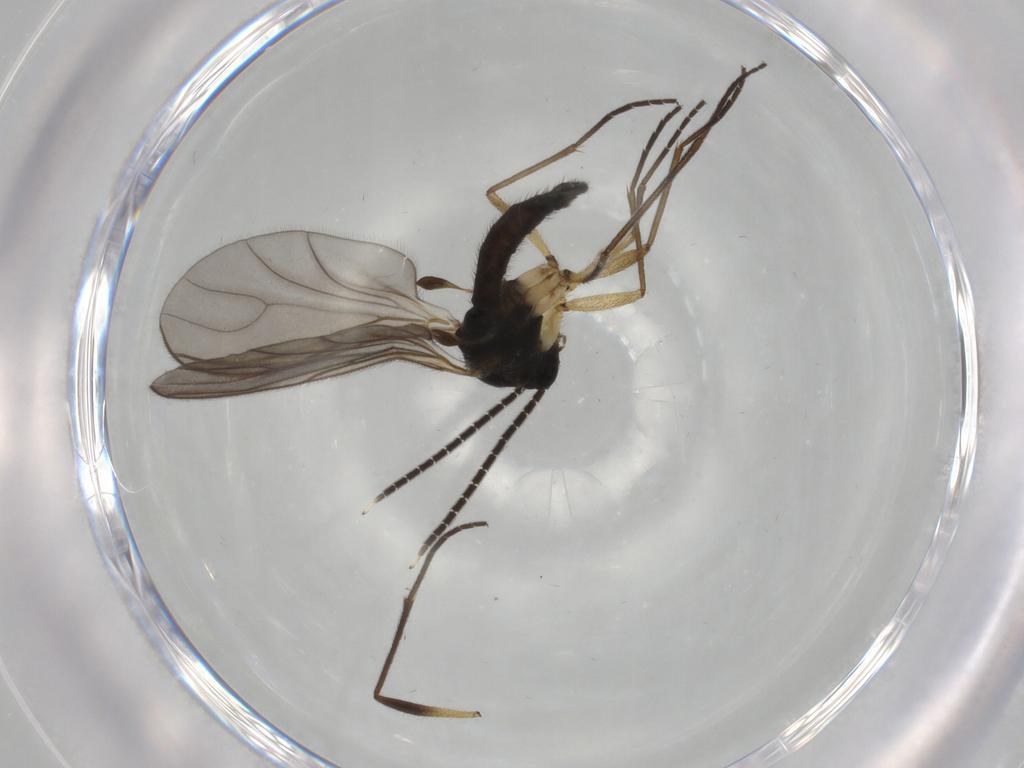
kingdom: Animalia
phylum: Arthropoda
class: Insecta
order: Diptera
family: Sciaridae
